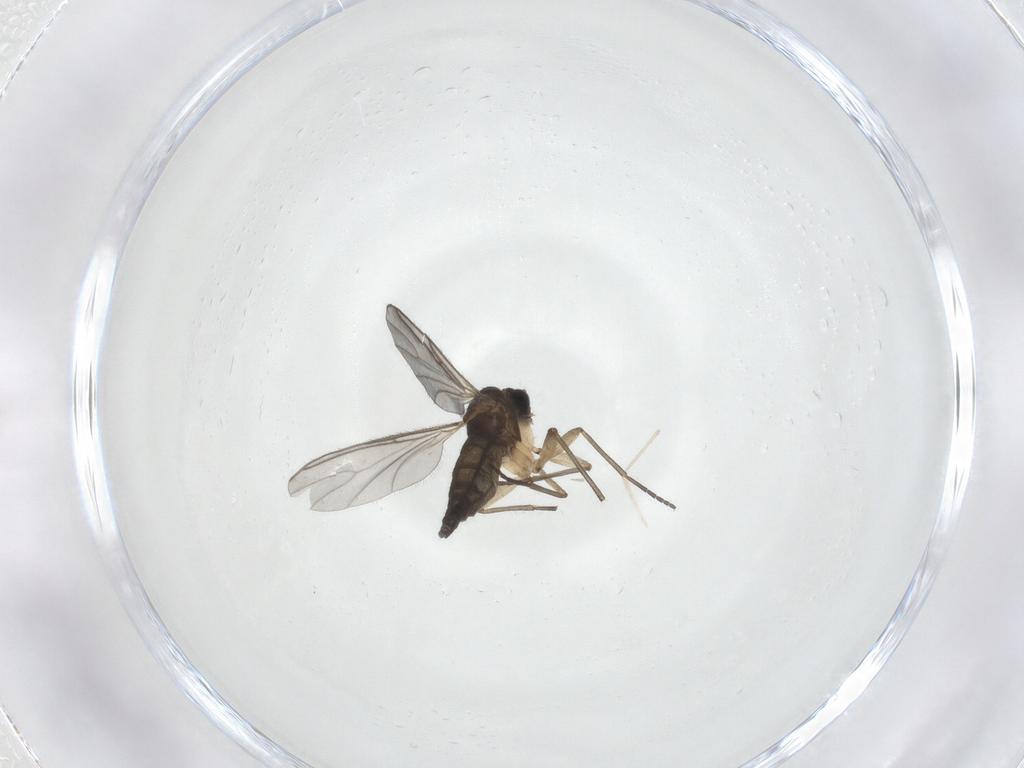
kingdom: Animalia
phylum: Arthropoda
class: Insecta
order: Diptera
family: Sciaridae
